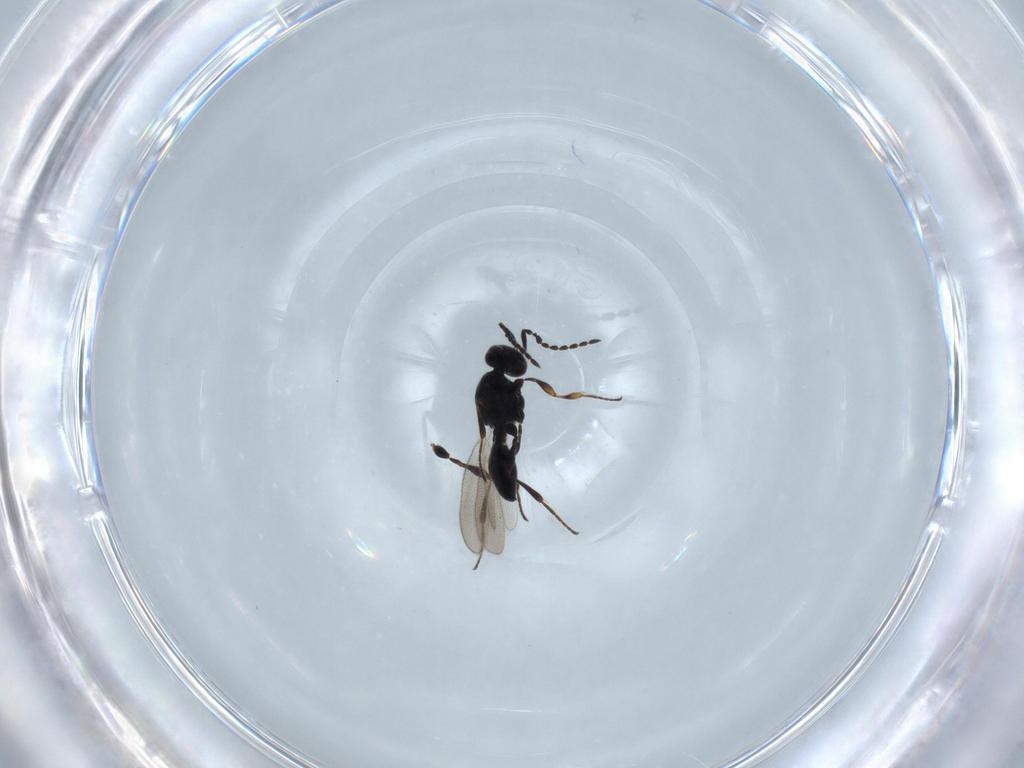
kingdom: Animalia
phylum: Arthropoda
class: Insecta
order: Hymenoptera
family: Platygastridae
